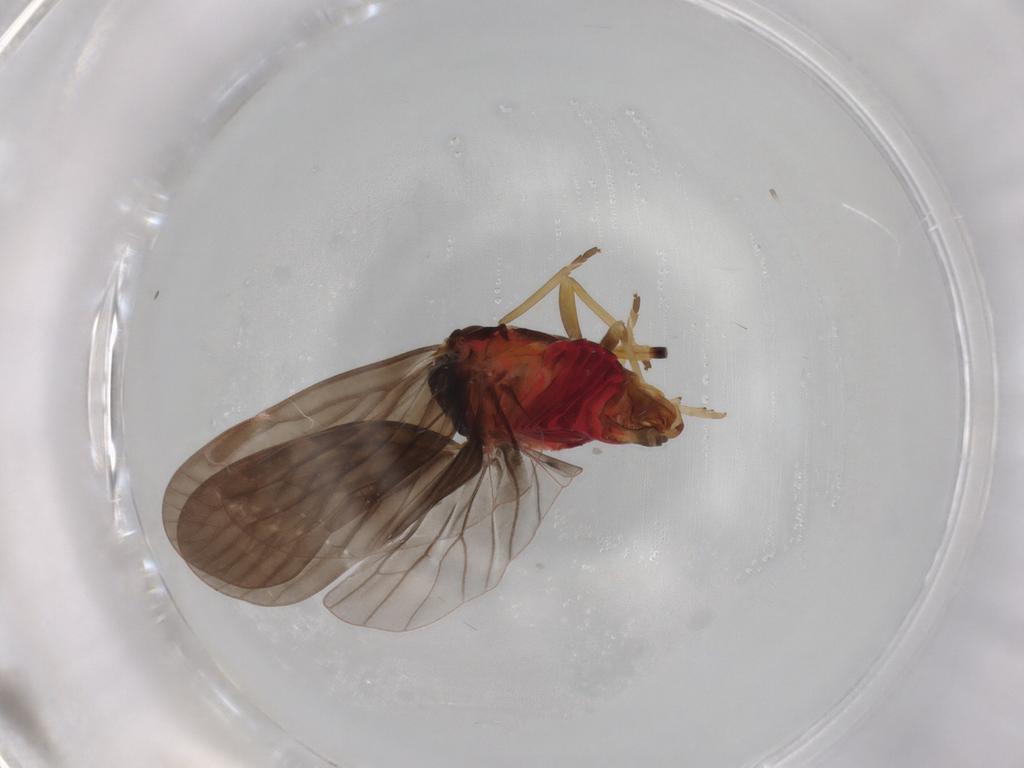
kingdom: Animalia
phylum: Arthropoda
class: Insecta
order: Hemiptera
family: Derbidae
